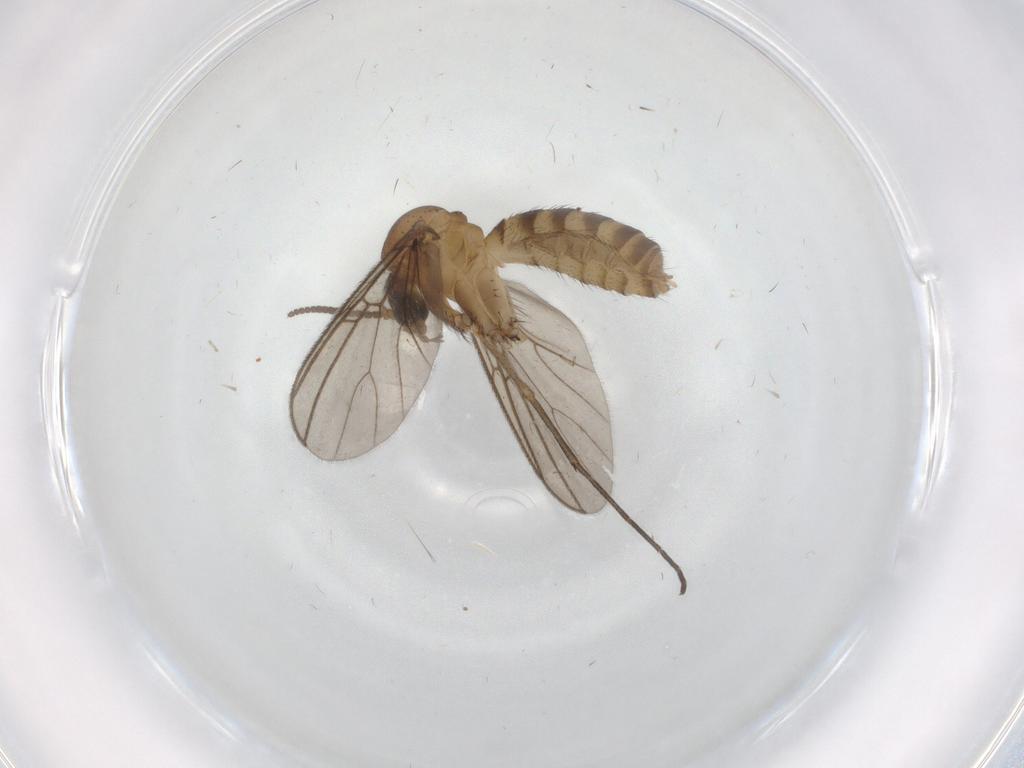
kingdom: Animalia
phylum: Arthropoda
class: Insecta
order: Diptera
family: Mycetophilidae
